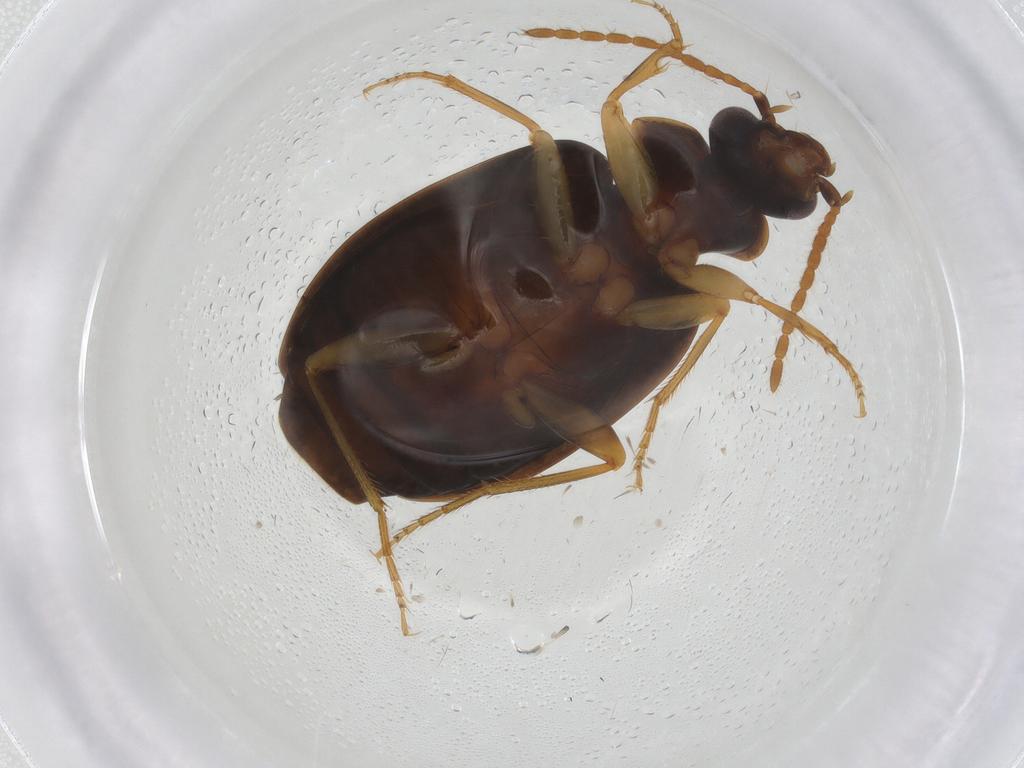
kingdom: Animalia
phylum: Arthropoda
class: Insecta
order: Coleoptera
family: Carabidae
